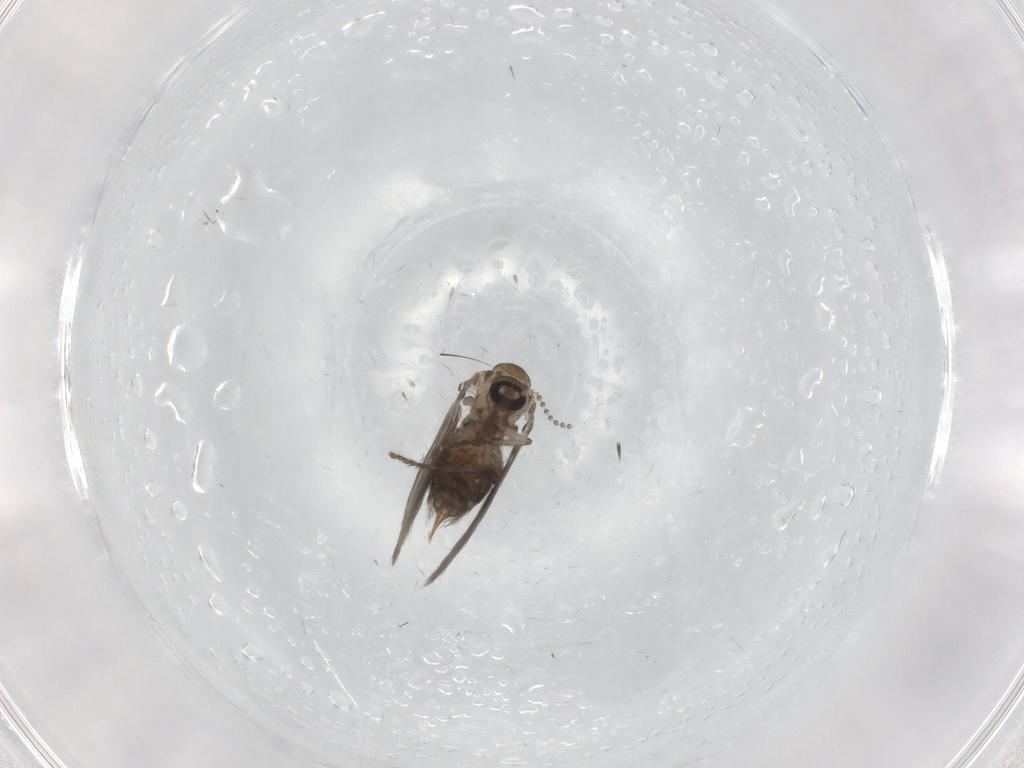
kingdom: Animalia
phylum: Arthropoda
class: Insecta
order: Diptera
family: Psychodidae
